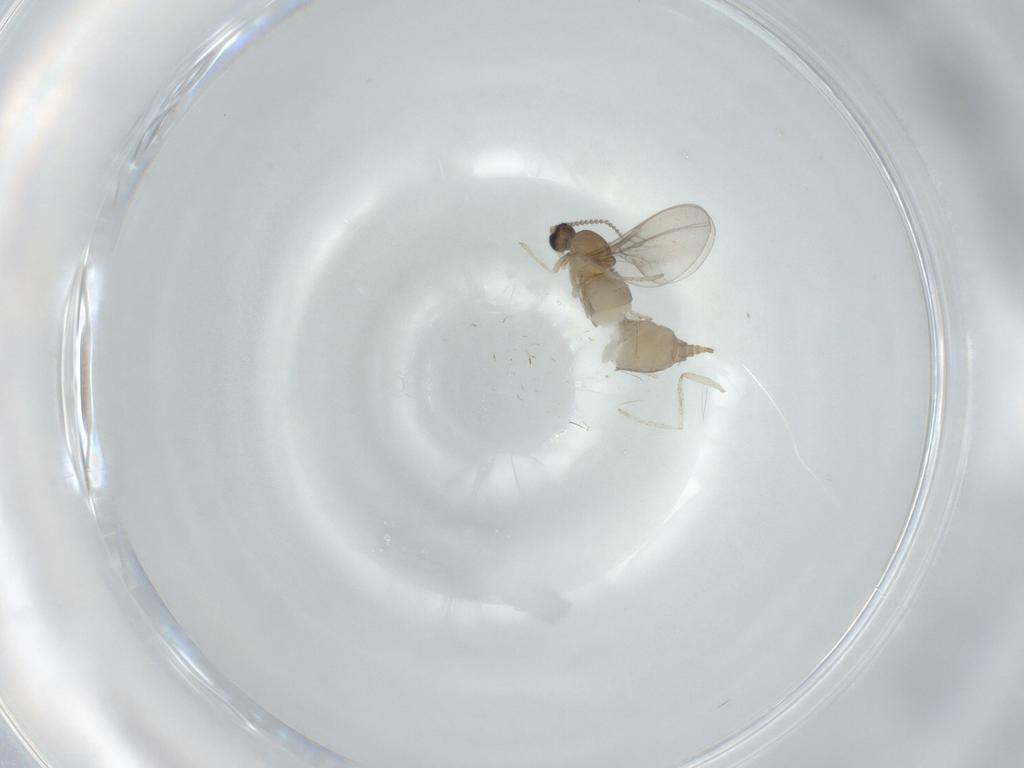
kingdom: Animalia
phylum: Arthropoda
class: Insecta
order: Diptera
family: Cecidomyiidae
